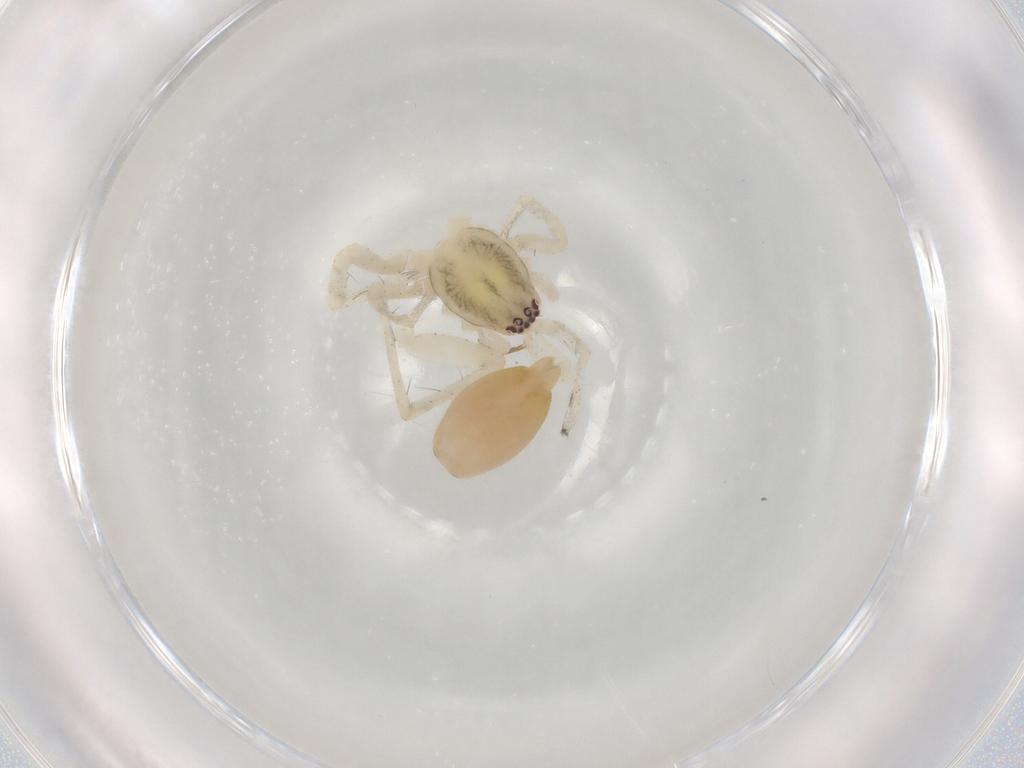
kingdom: Animalia
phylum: Arthropoda
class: Arachnida
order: Araneae
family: Anyphaenidae
